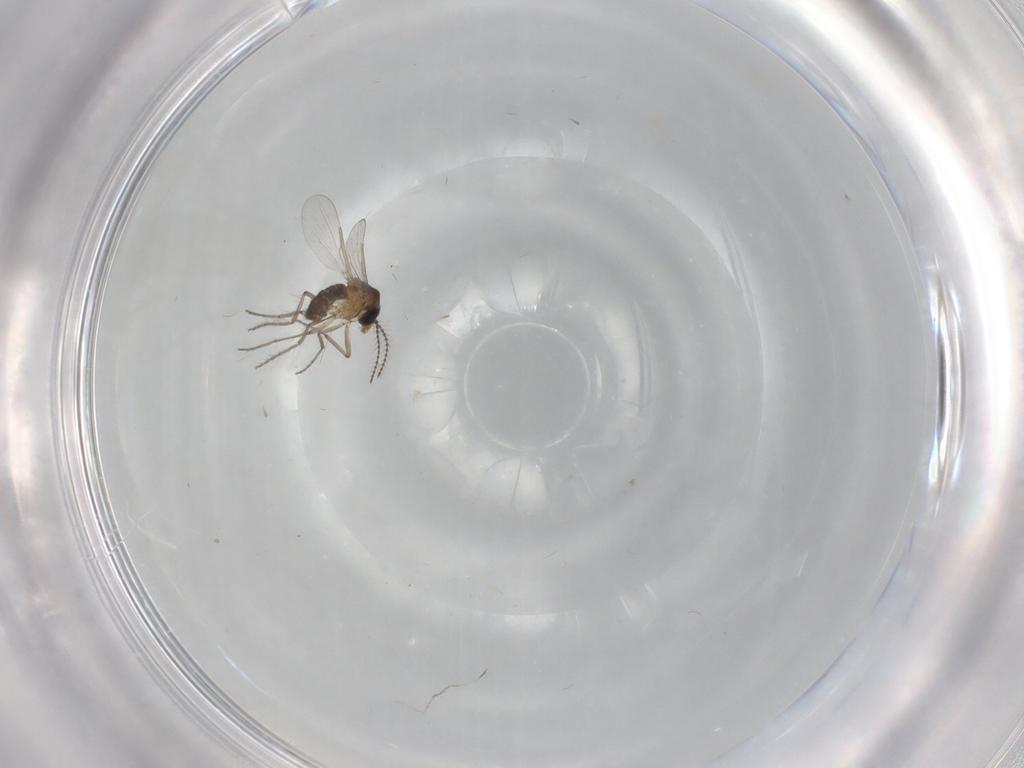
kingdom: Animalia
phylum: Arthropoda
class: Insecta
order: Diptera
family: Ceratopogonidae
